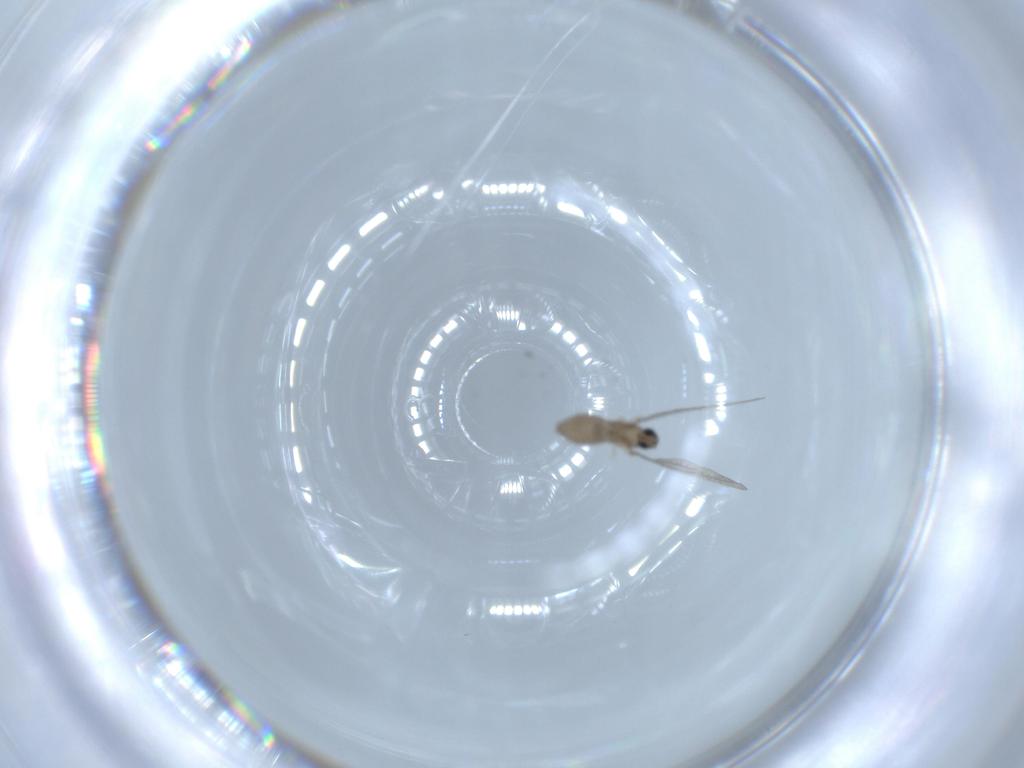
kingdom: Animalia
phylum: Arthropoda
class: Insecta
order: Diptera
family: Cecidomyiidae
